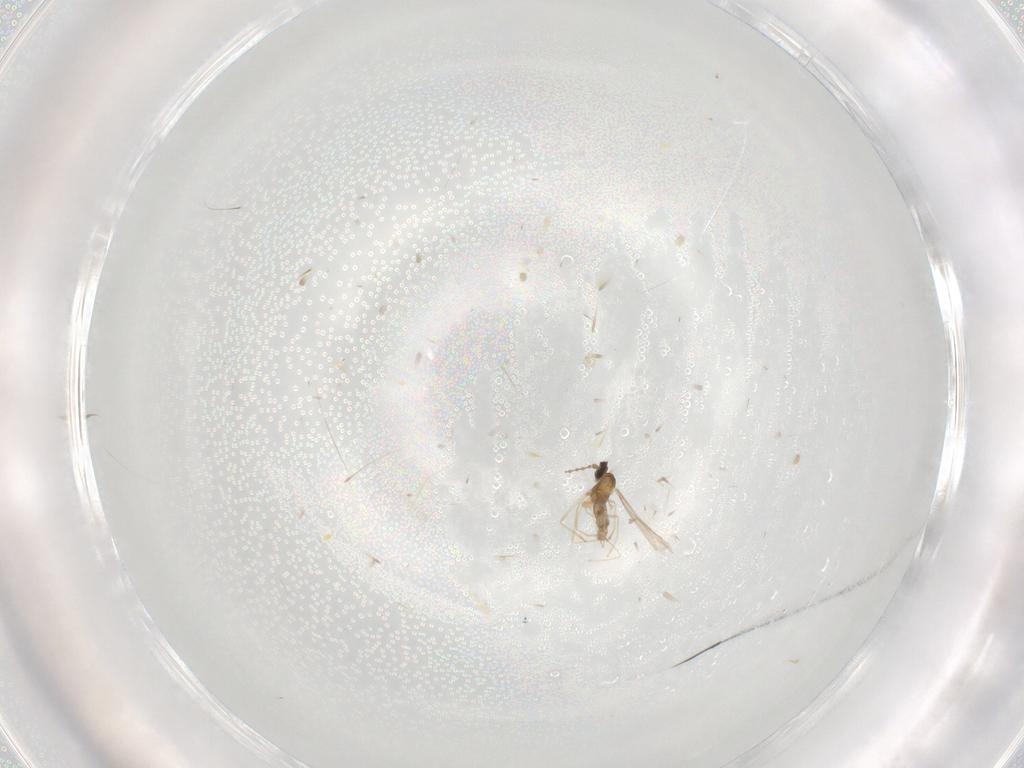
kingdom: Animalia
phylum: Arthropoda
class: Insecta
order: Diptera
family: Cecidomyiidae
